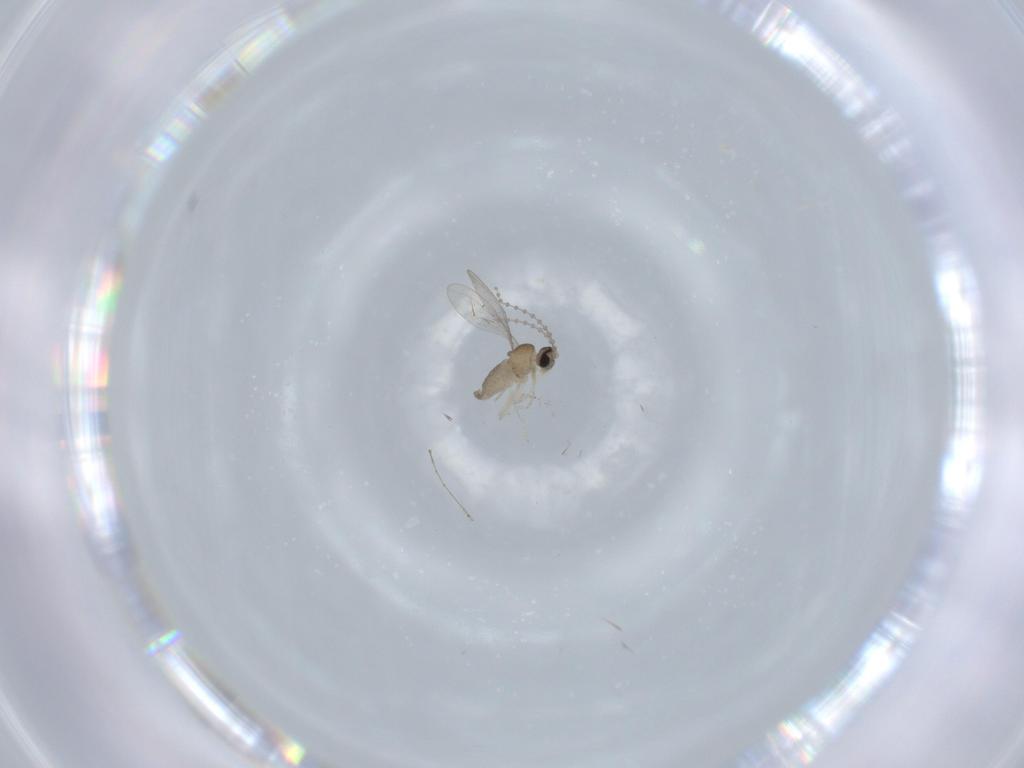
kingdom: Animalia
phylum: Arthropoda
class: Insecta
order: Diptera
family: Cecidomyiidae
